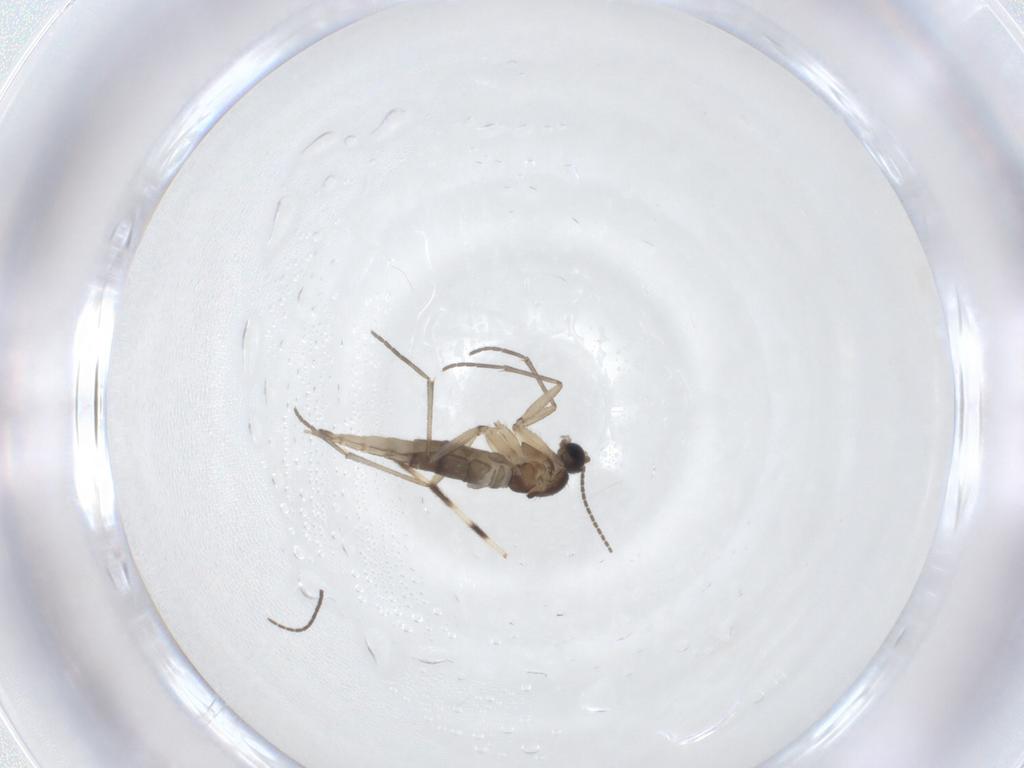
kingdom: Animalia
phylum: Arthropoda
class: Insecta
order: Diptera
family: Sciaridae
